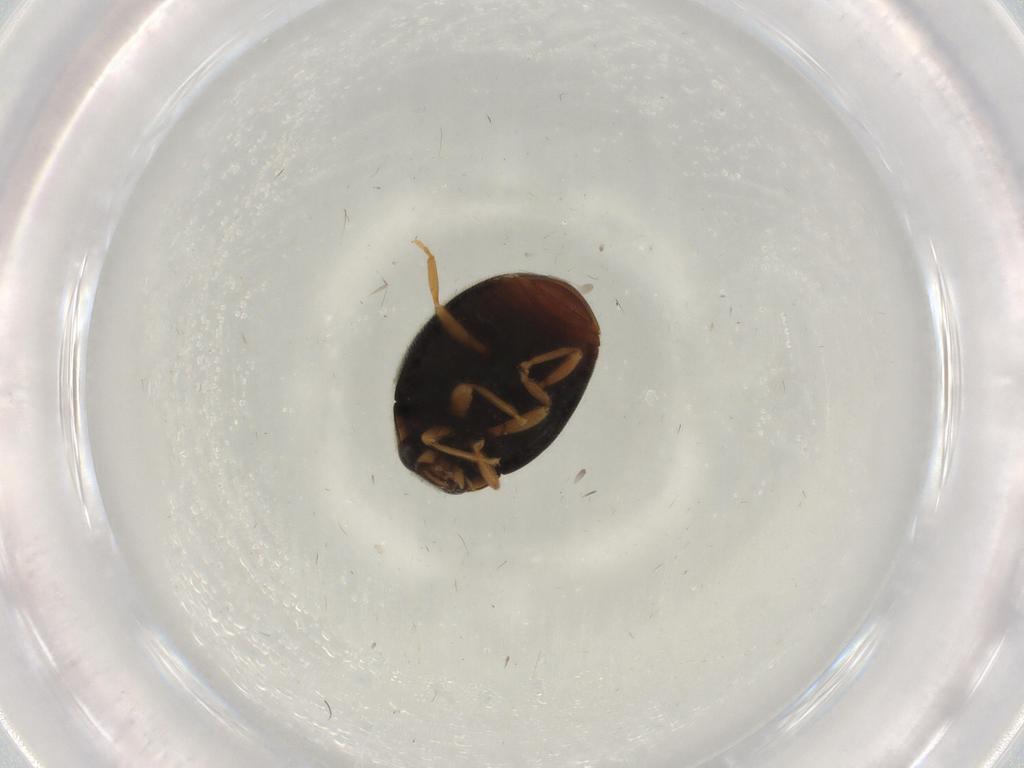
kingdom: Animalia
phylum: Arthropoda
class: Insecta
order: Coleoptera
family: Coccinellidae
